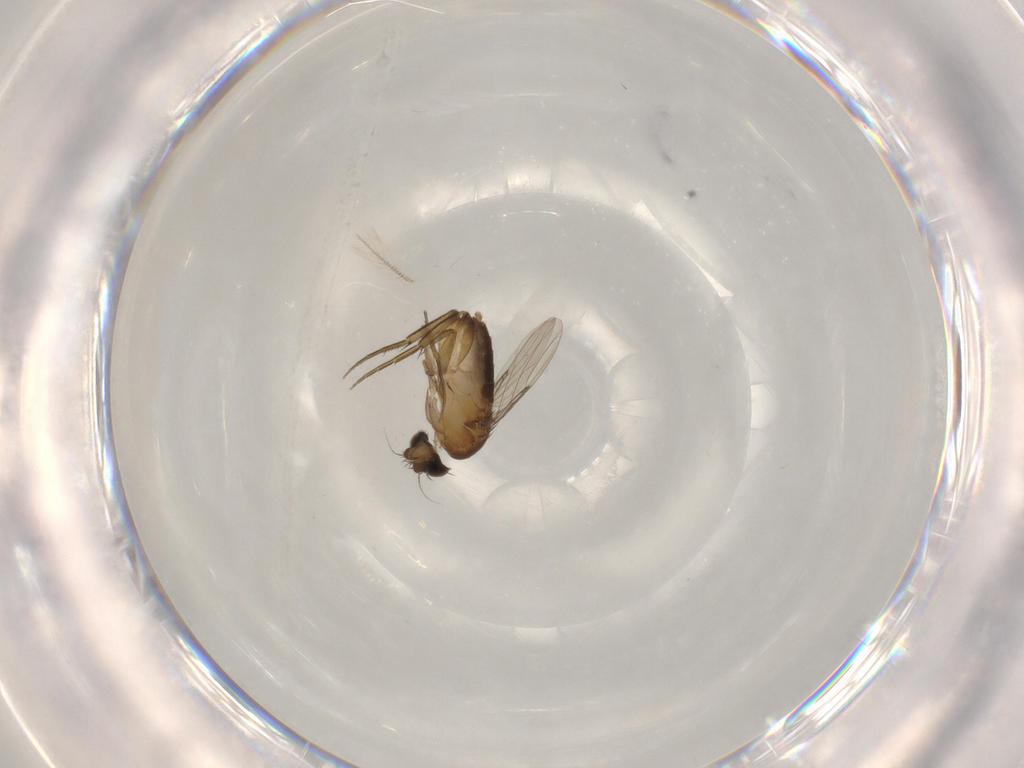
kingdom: Animalia
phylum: Arthropoda
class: Insecta
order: Diptera
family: Phoridae
